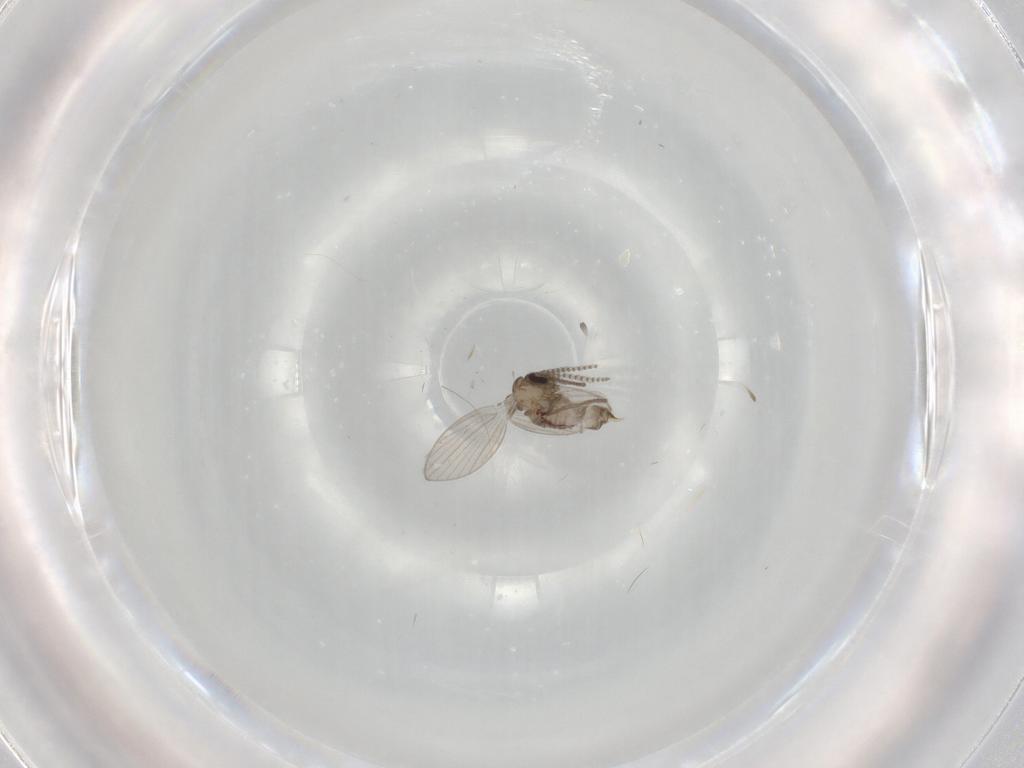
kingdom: Animalia
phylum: Arthropoda
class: Insecta
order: Diptera
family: Psychodidae
